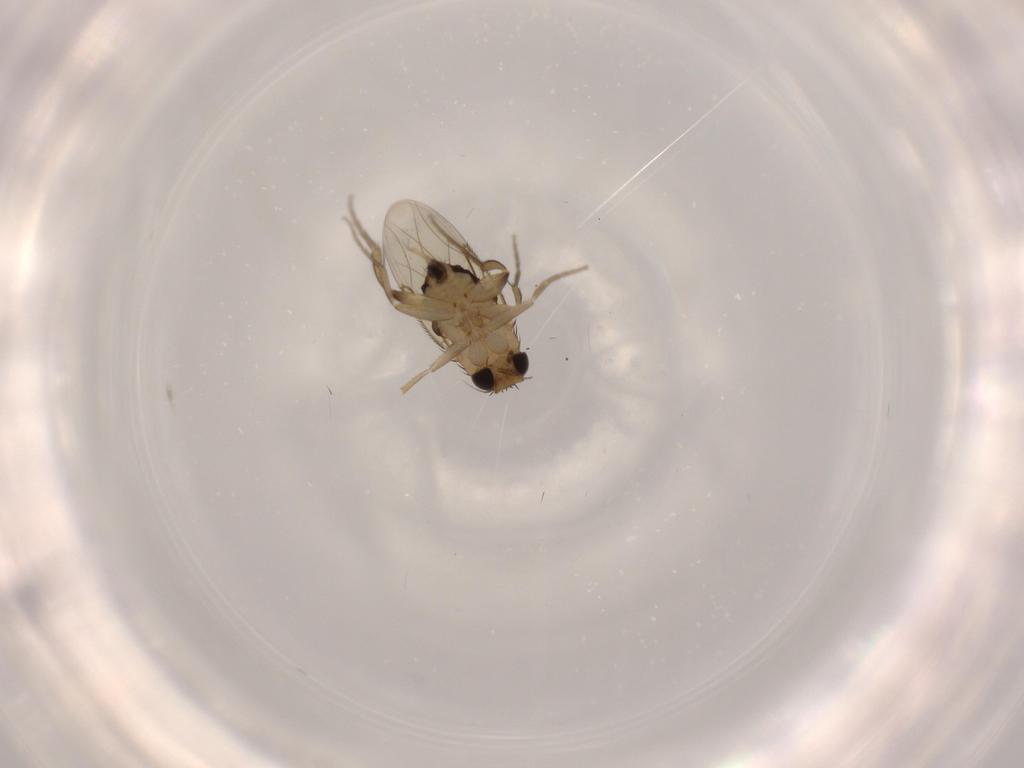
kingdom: Animalia
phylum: Arthropoda
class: Insecta
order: Diptera
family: Phoridae
